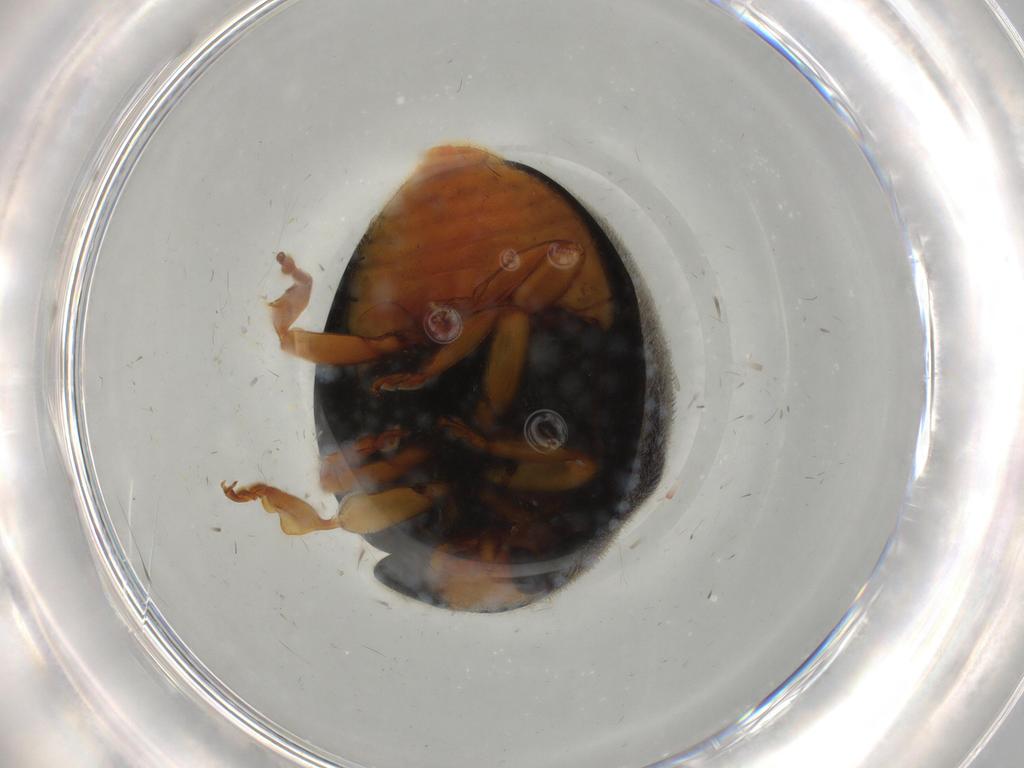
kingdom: Animalia
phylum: Arthropoda
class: Insecta
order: Coleoptera
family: Coccinellidae
